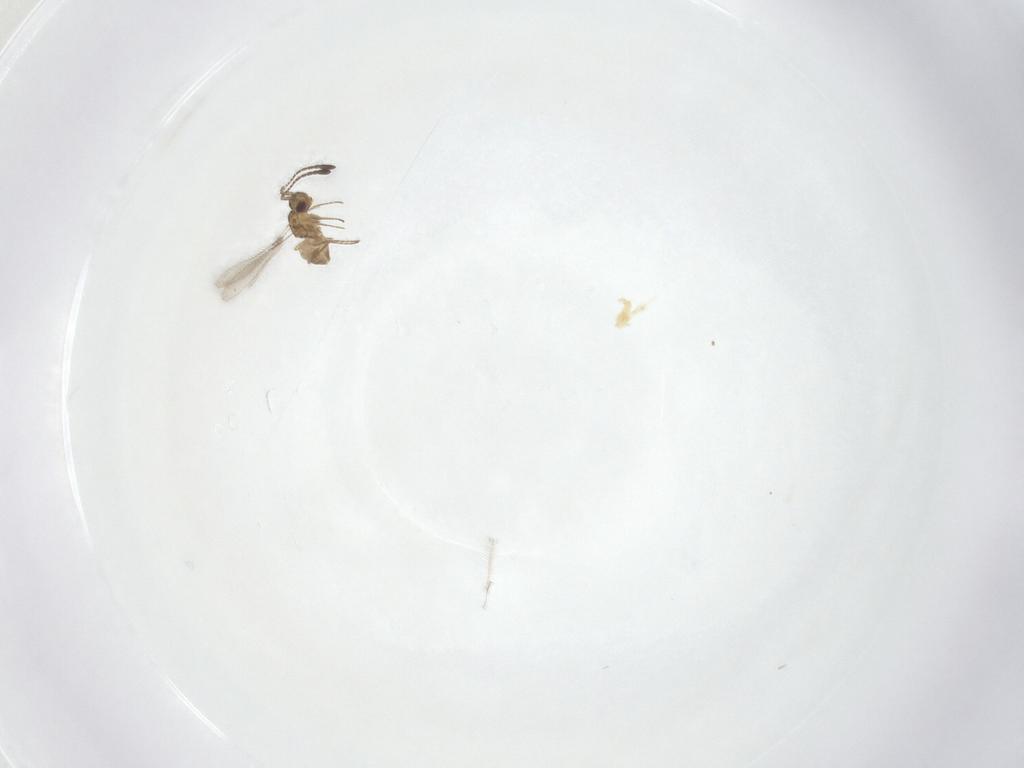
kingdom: Animalia
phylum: Arthropoda
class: Insecta
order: Hymenoptera
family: Mymaridae
